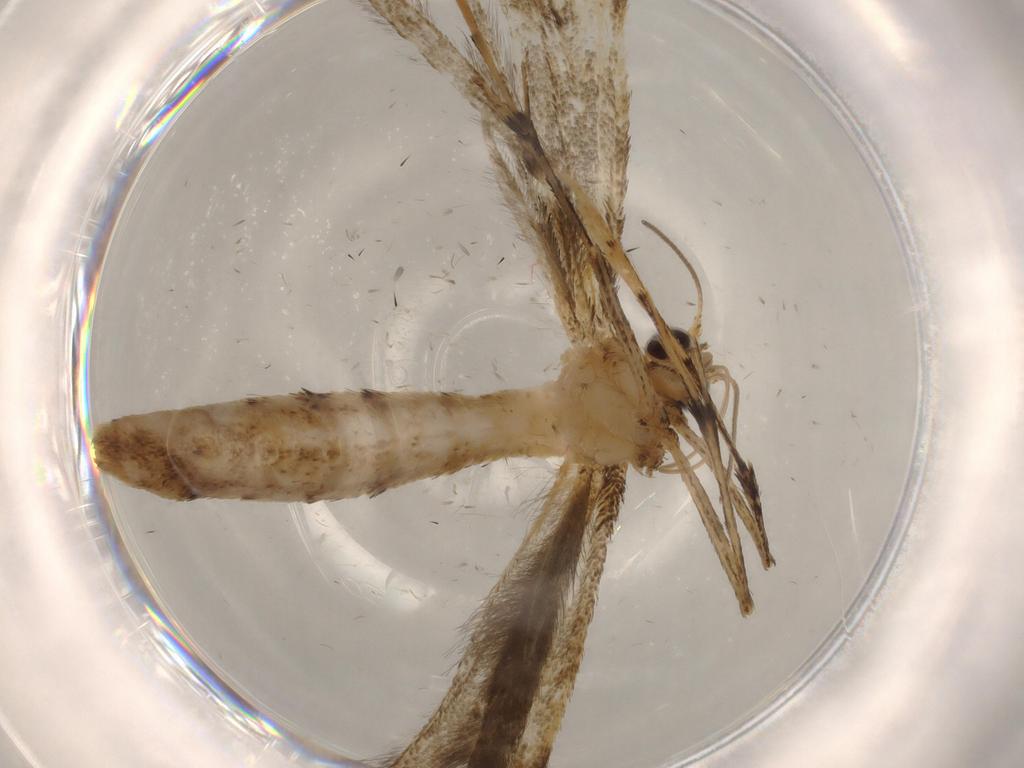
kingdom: Animalia
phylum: Arthropoda
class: Insecta
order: Lepidoptera
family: Pterophoridae
